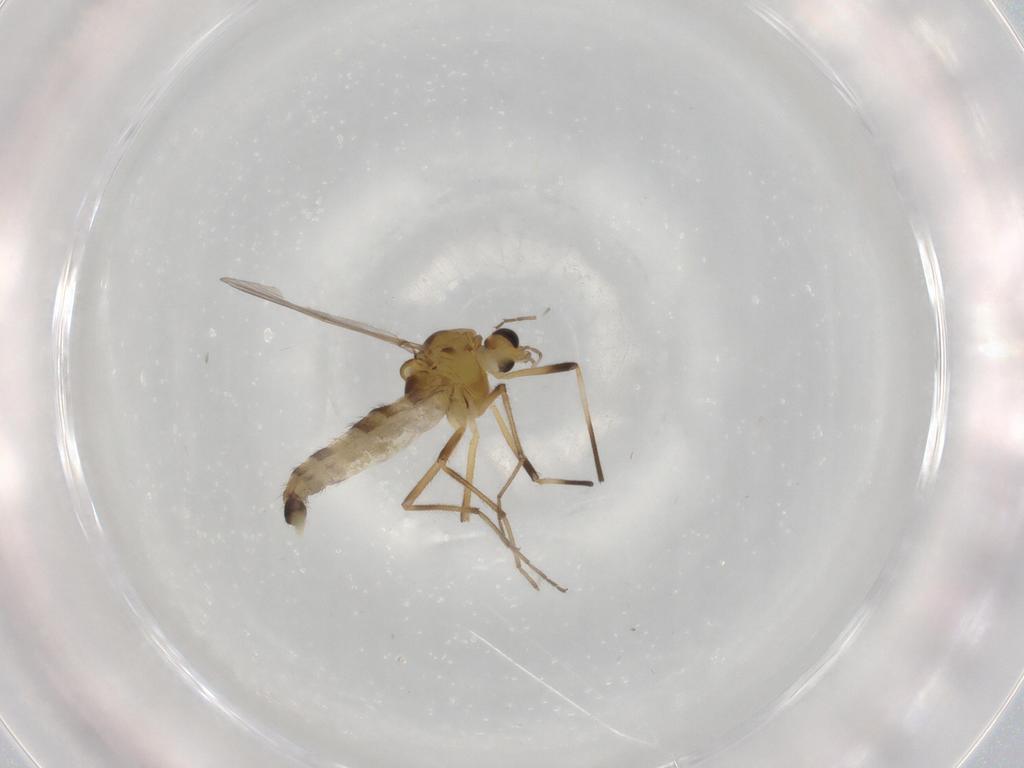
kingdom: Animalia
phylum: Arthropoda
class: Insecta
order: Diptera
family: Chironomidae
